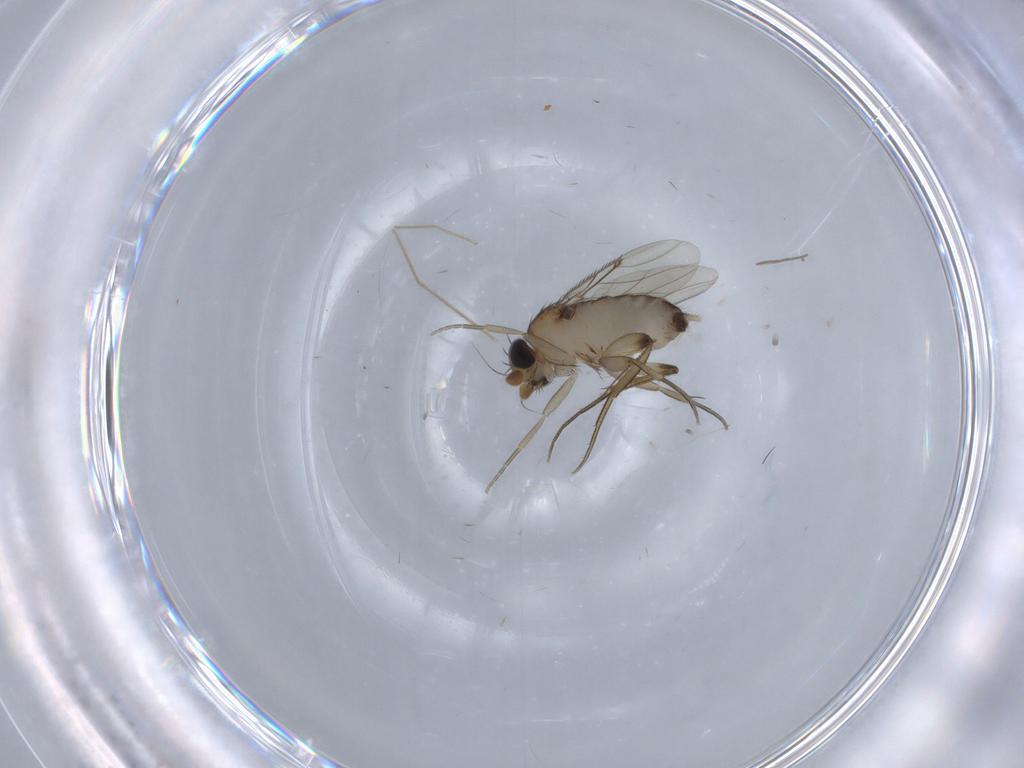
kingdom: Animalia
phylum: Arthropoda
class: Insecta
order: Diptera
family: Phoridae
